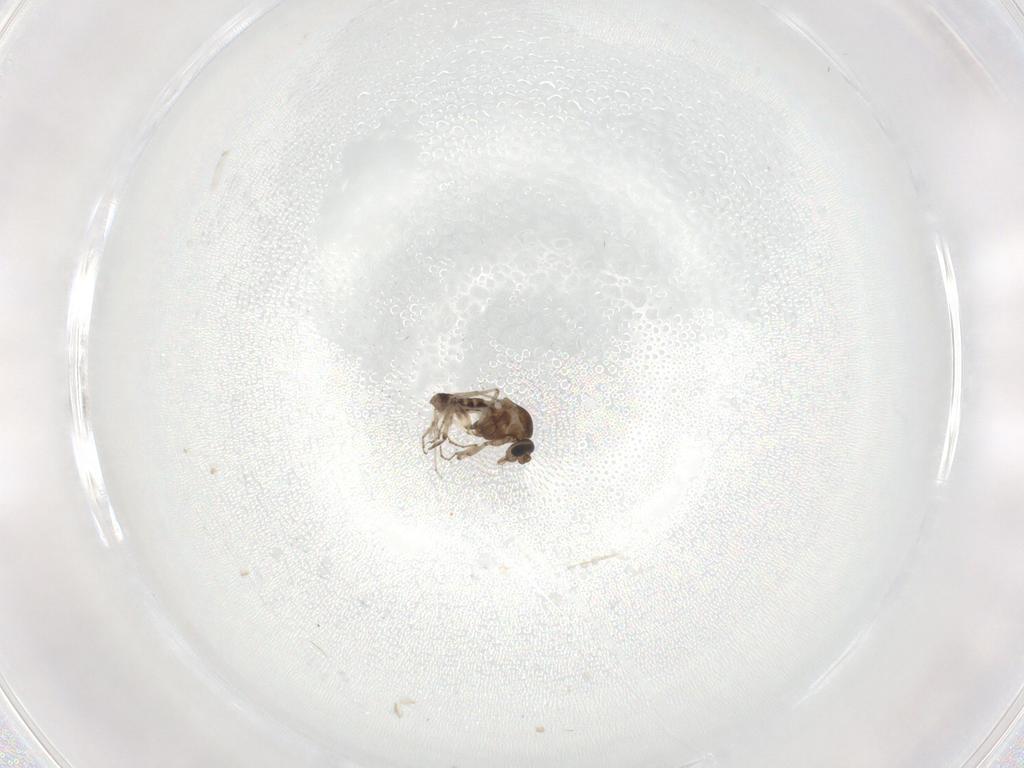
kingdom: Animalia
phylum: Arthropoda
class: Insecta
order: Diptera
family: Ceratopogonidae
